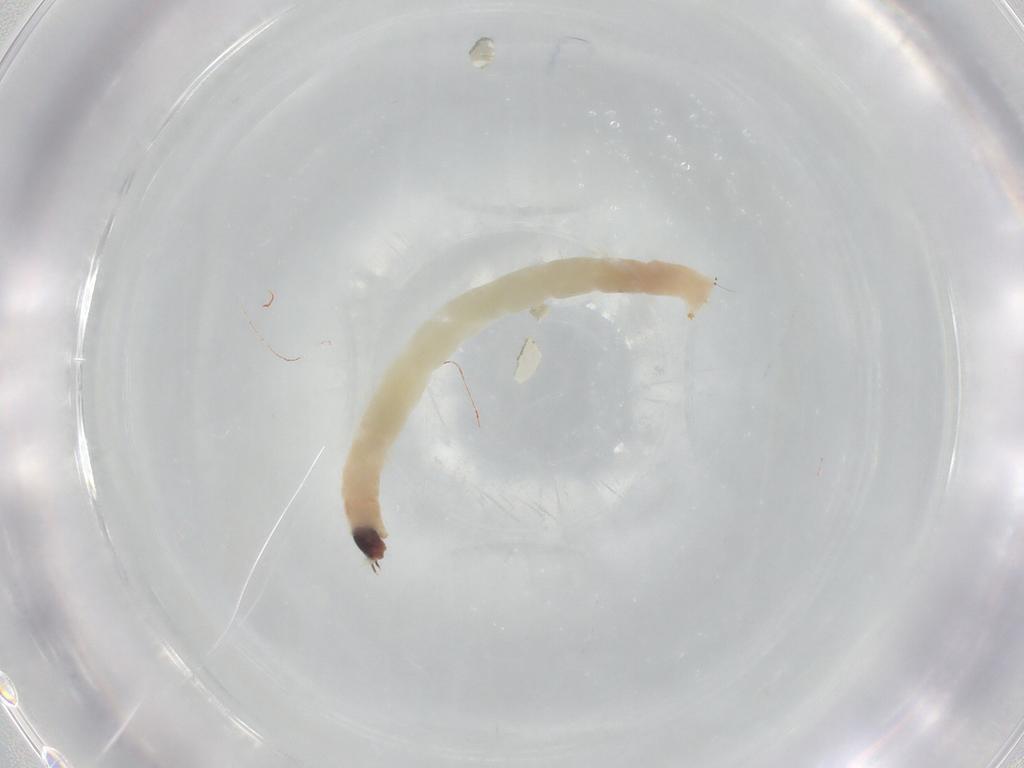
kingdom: Animalia
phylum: Arthropoda
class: Insecta
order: Diptera
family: Chironomidae
